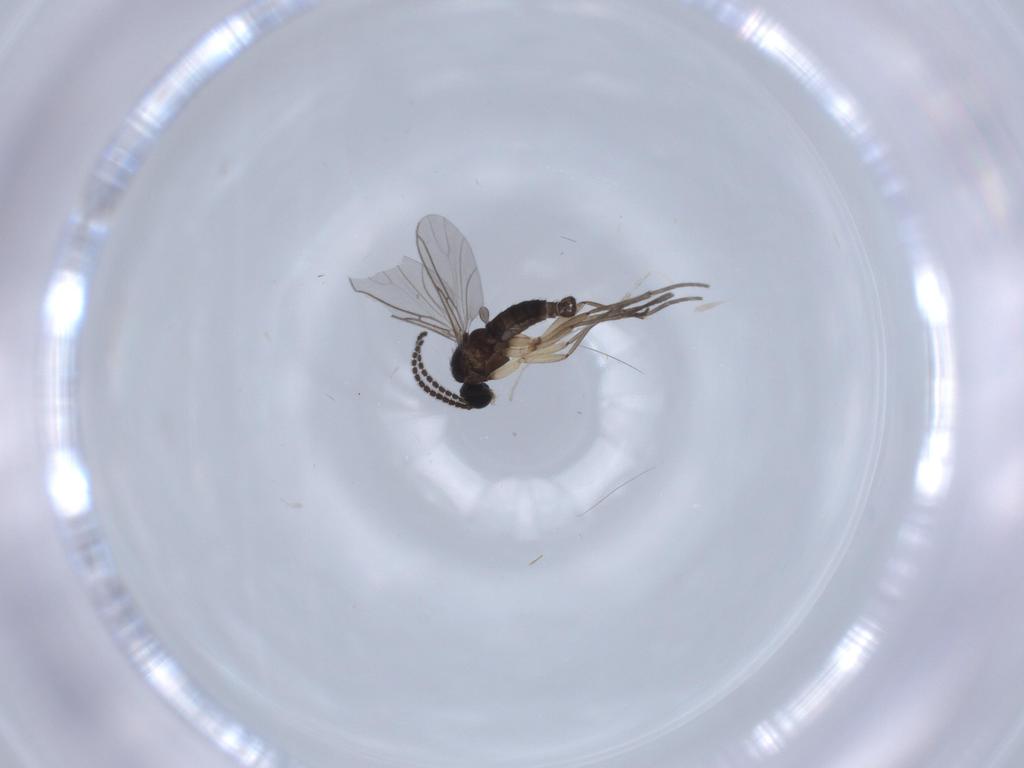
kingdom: Animalia
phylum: Arthropoda
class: Insecta
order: Diptera
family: Sciaridae
